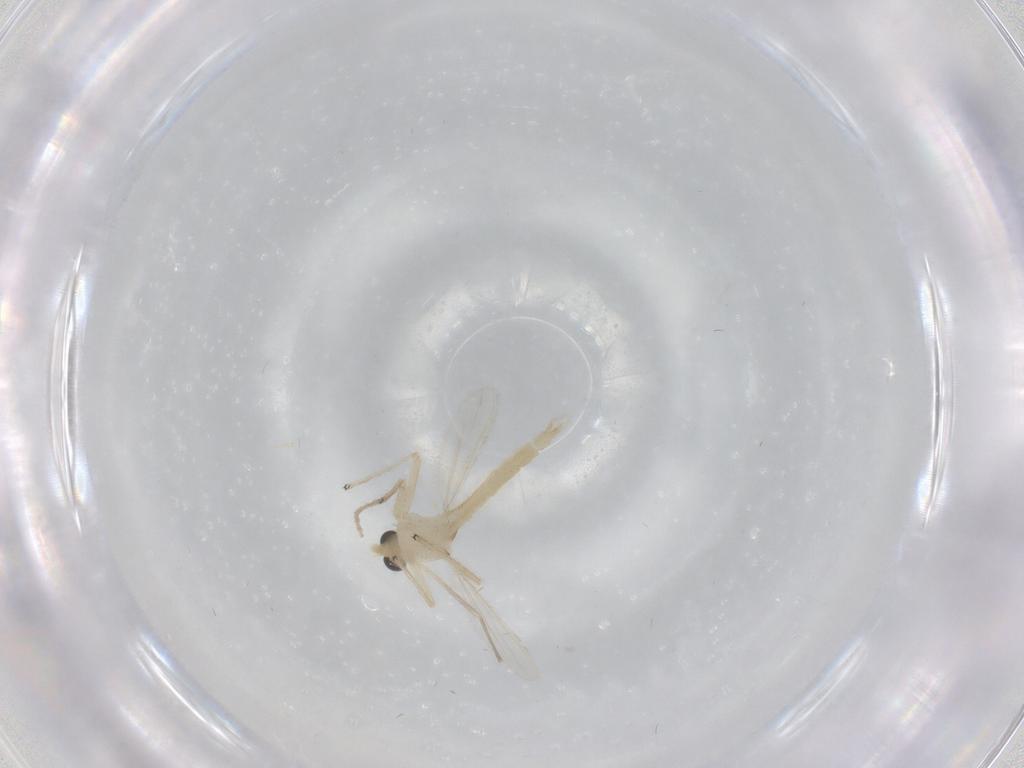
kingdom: Animalia
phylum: Arthropoda
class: Insecta
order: Diptera
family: Chironomidae
